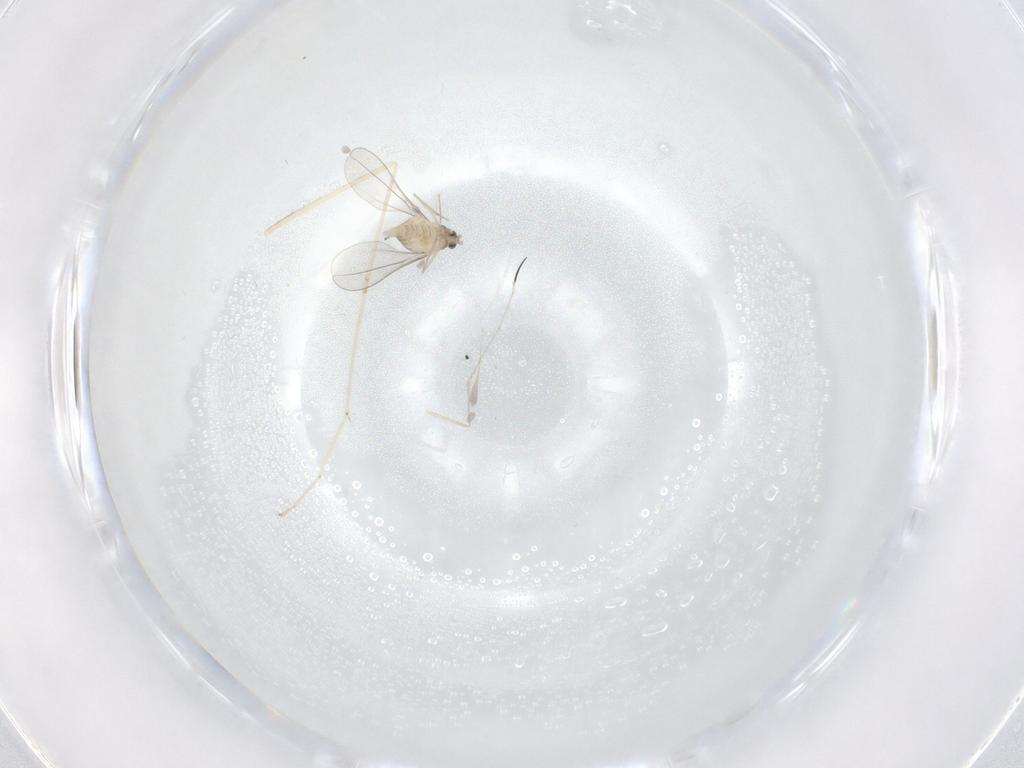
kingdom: Animalia
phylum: Arthropoda
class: Insecta
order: Diptera
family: Cecidomyiidae
